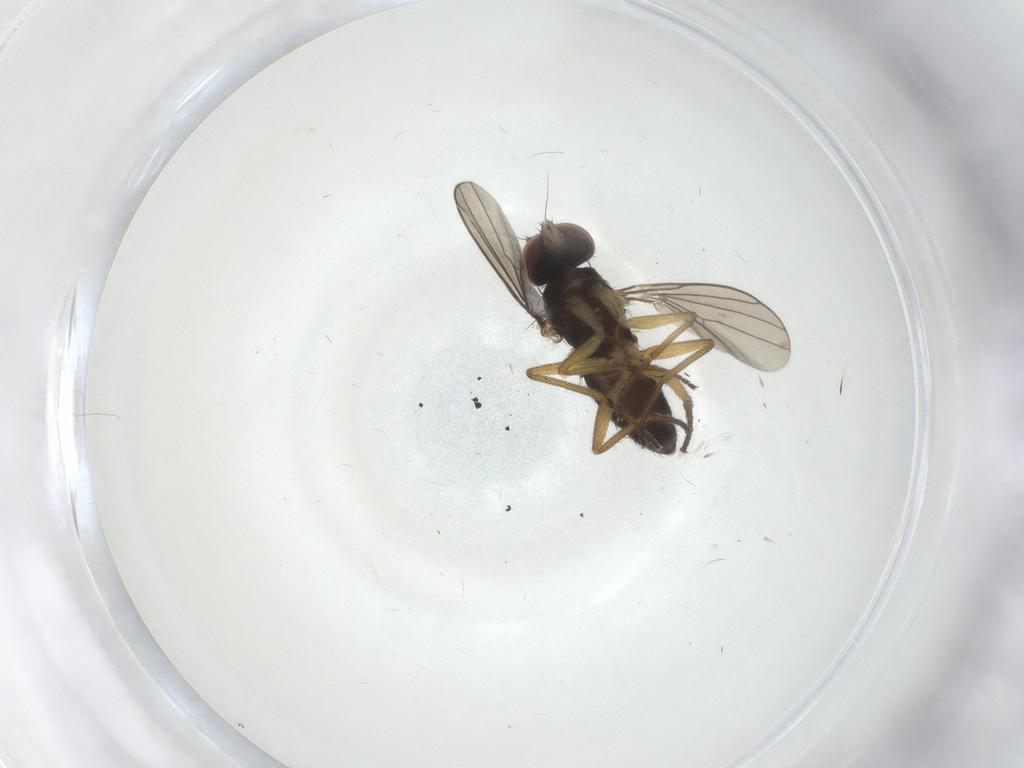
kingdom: Animalia
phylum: Arthropoda
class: Insecta
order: Diptera
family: Dolichopodidae
